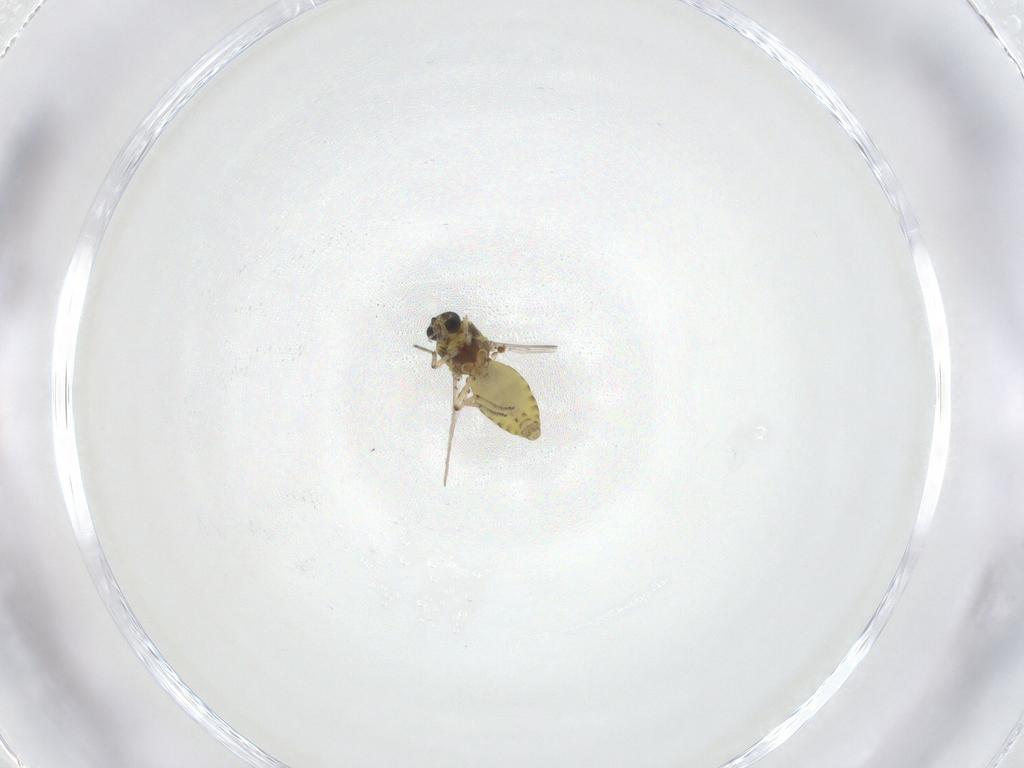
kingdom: Animalia
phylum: Arthropoda
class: Insecta
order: Diptera
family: Ceratopogonidae
